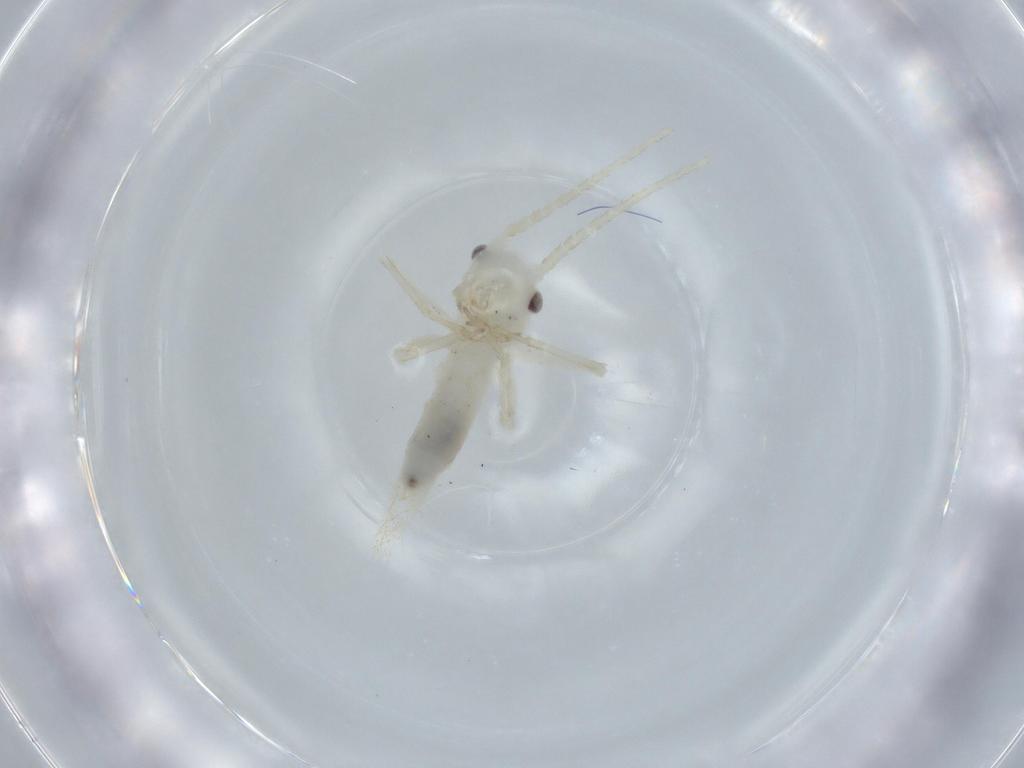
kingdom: Animalia
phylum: Arthropoda
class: Insecta
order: Orthoptera
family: Trigonidiidae
